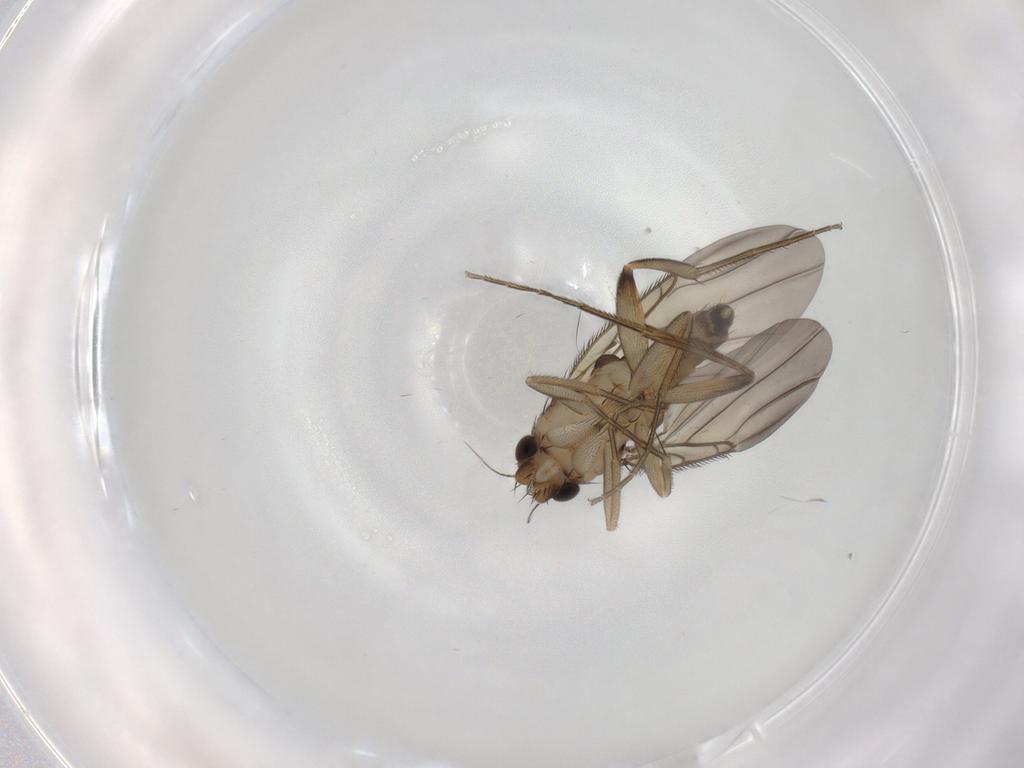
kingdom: Animalia
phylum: Arthropoda
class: Insecta
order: Diptera
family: Phoridae
